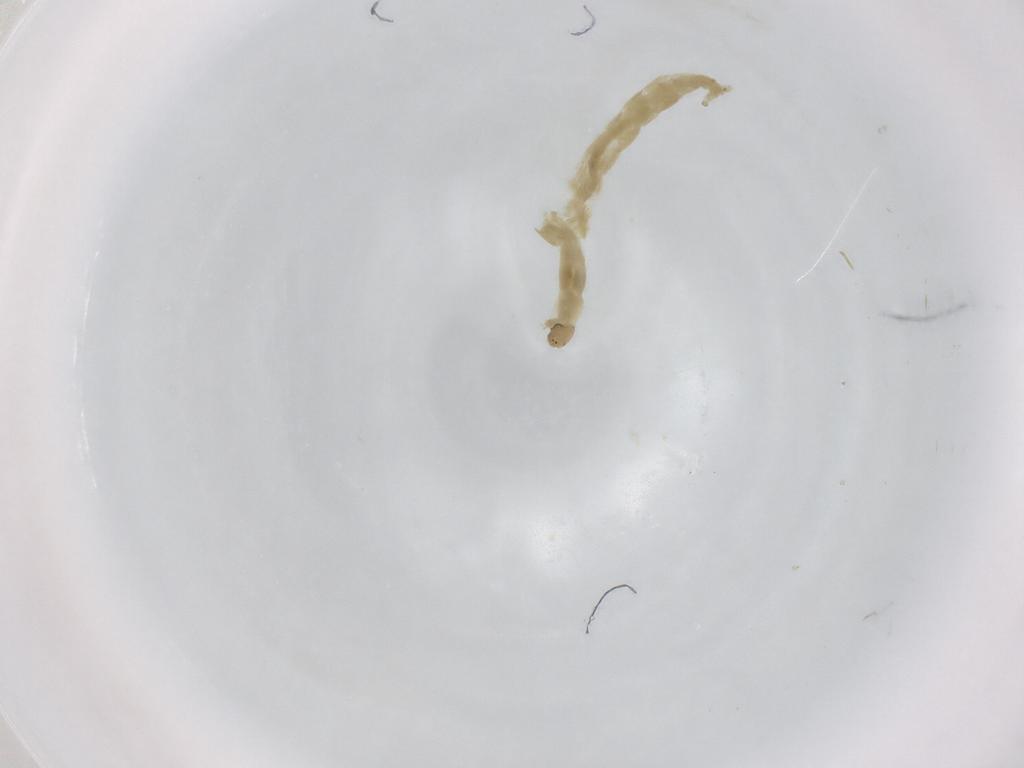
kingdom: Animalia
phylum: Arthropoda
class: Insecta
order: Diptera
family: Chironomidae
